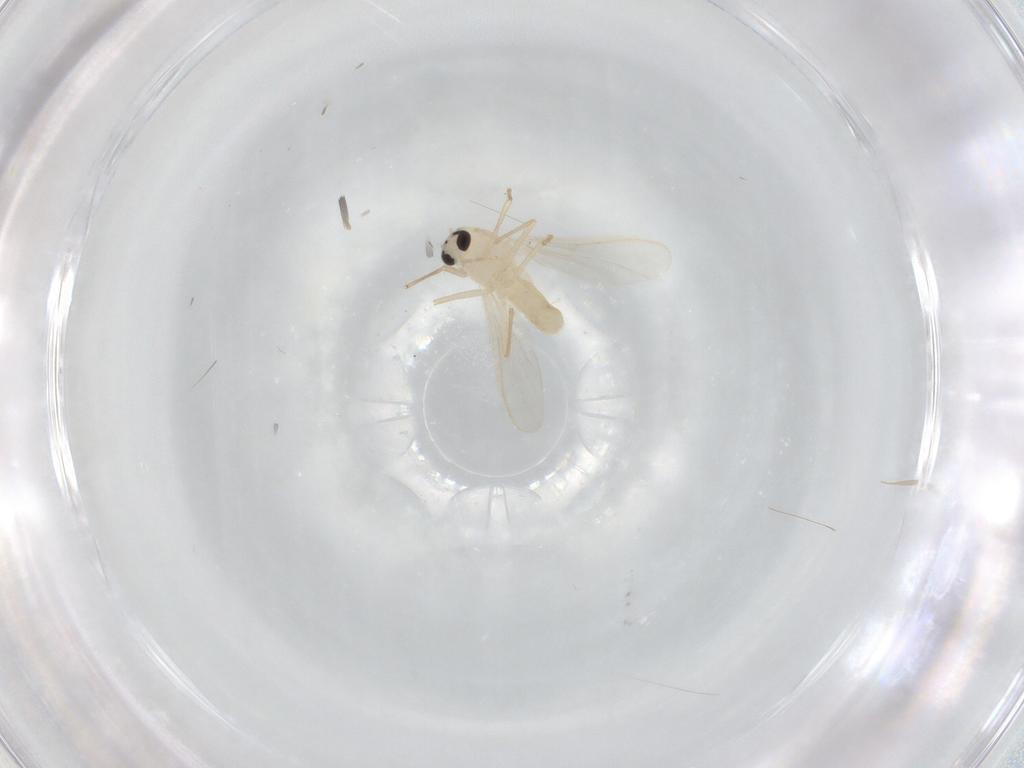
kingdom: Animalia
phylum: Arthropoda
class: Insecta
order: Diptera
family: Chironomidae
